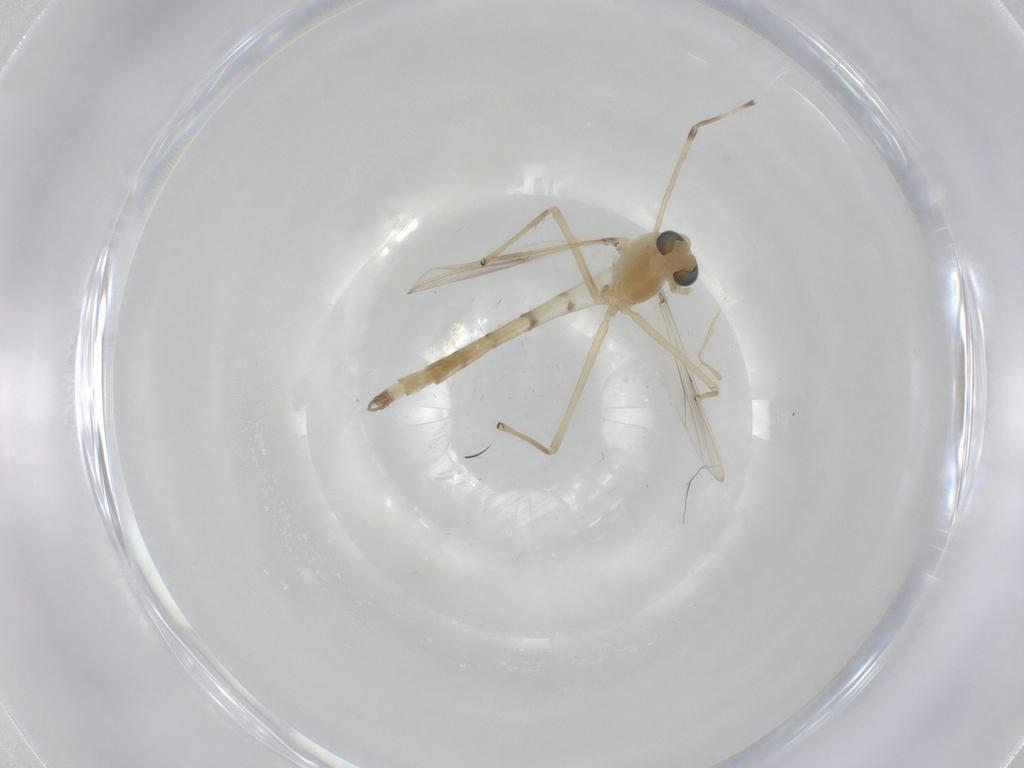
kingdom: Animalia
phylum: Arthropoda
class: Insecta
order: Diptera
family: Chironomidae
